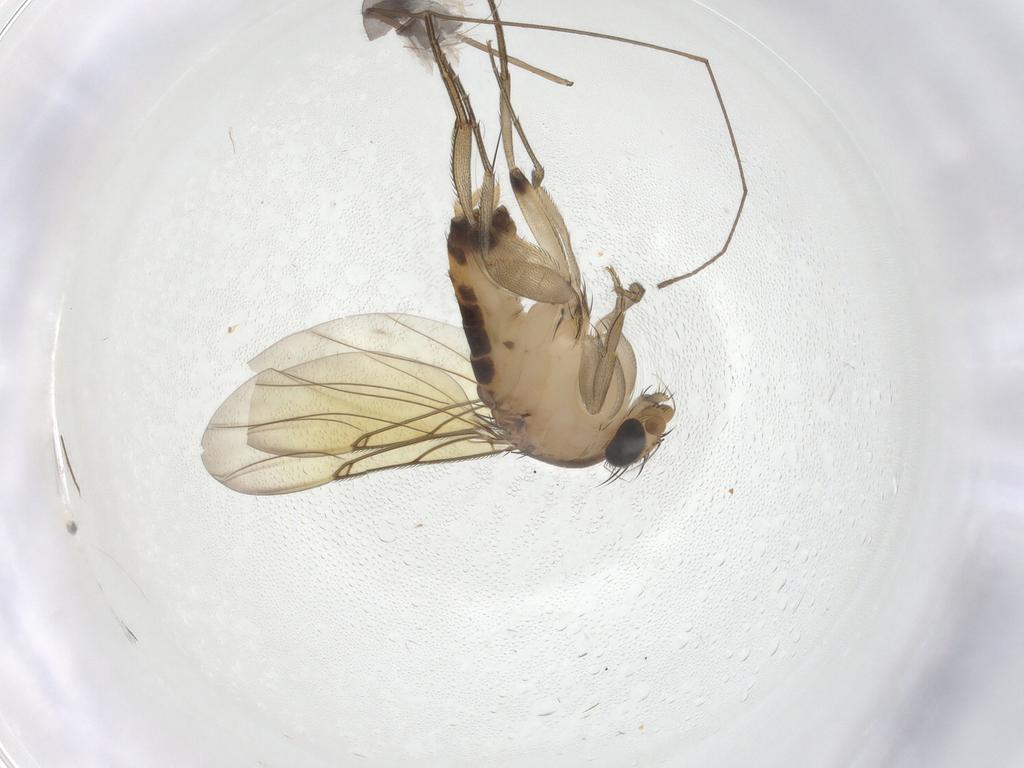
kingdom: Animalia
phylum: Arthropoda
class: Insecta
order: Diptera
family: Phoridae
